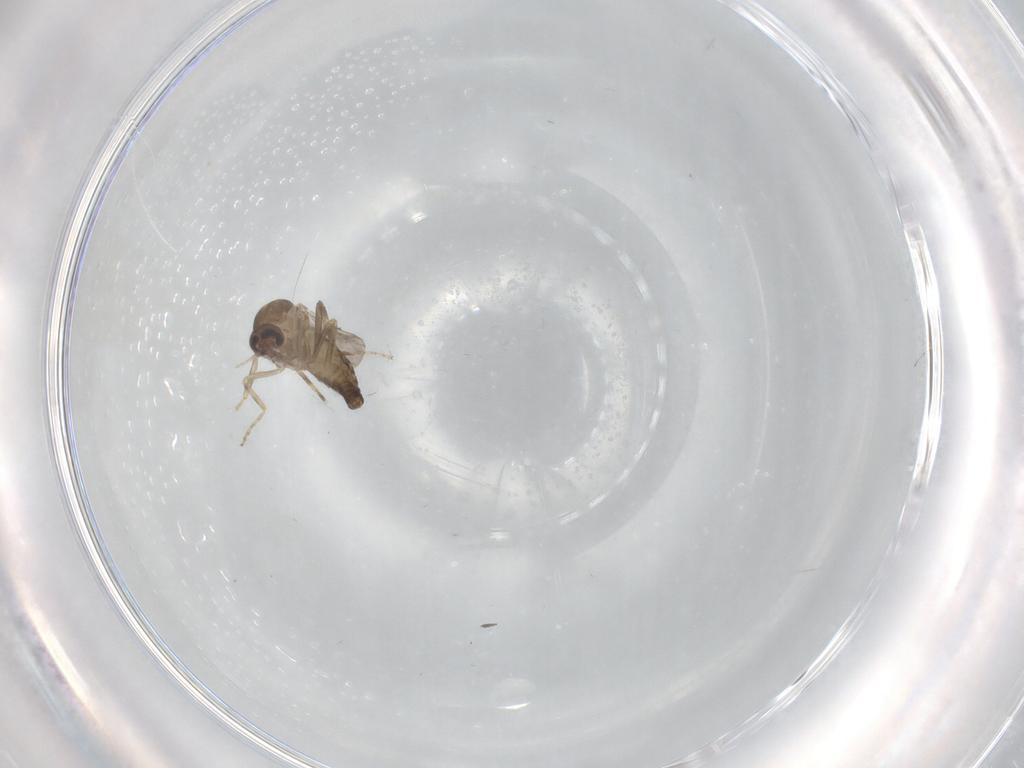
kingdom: Animalia
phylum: Arthropoda
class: Insecta
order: Diptera
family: Ceratopogonidae
